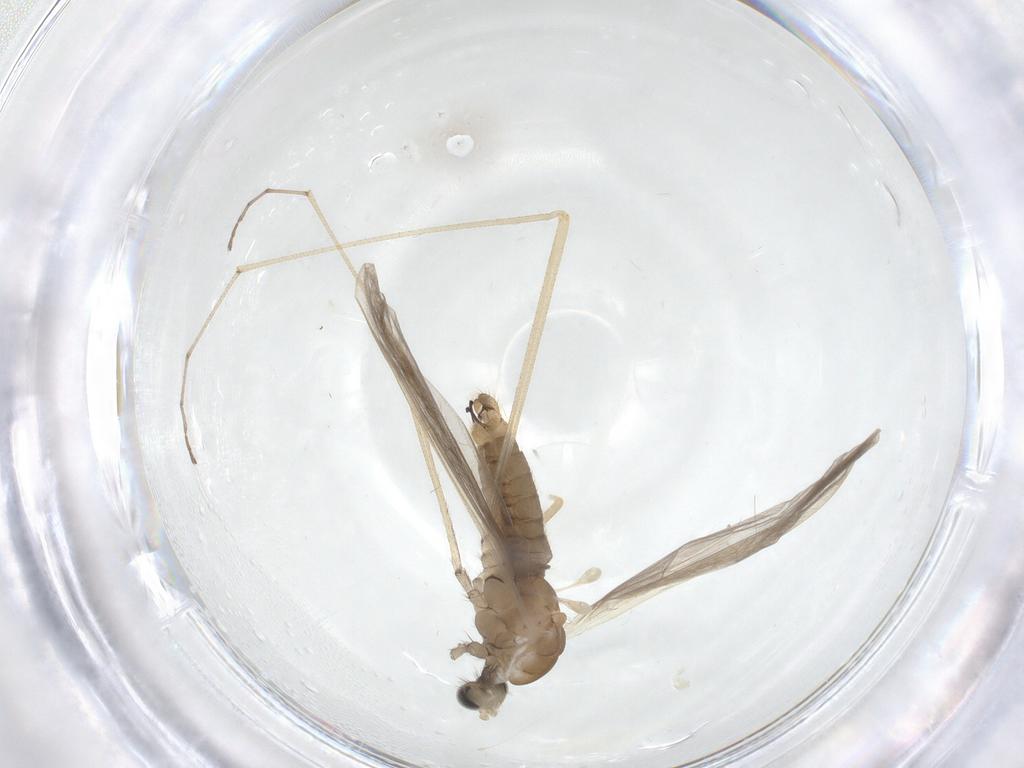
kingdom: Animalia
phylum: Arthropoda
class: Insecta
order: Diptera
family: Limoniidae
